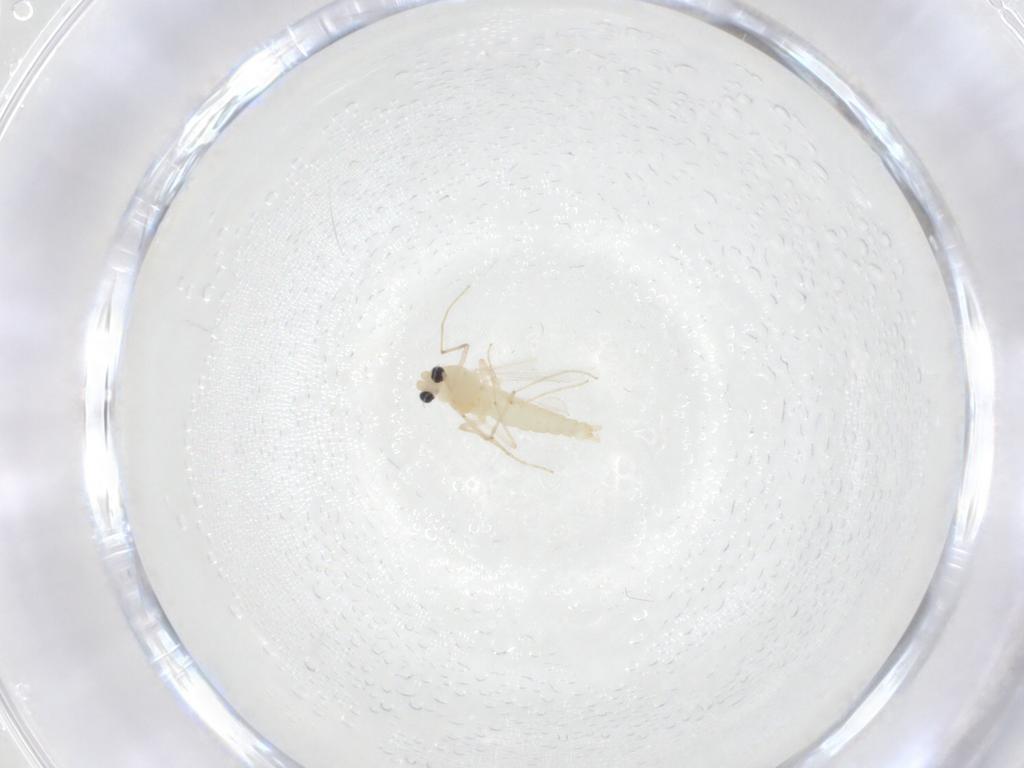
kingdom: Animalia
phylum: Arthropoda
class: Insecta
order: Diptera
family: Chironomidae
